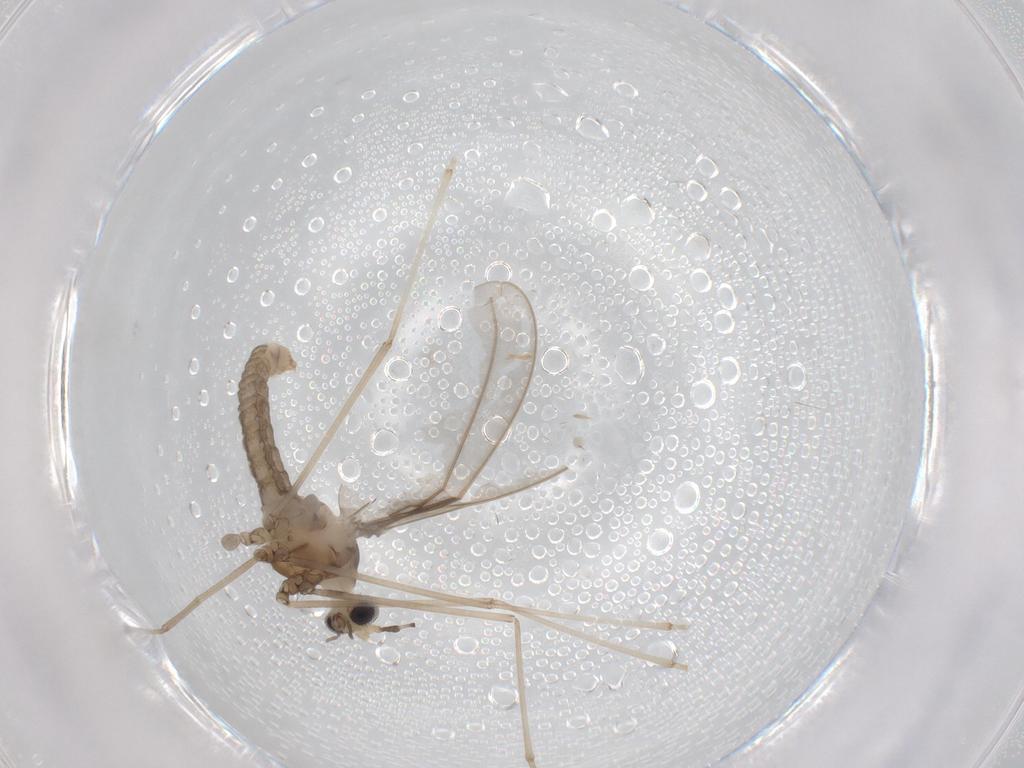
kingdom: Animalia
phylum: Arthropoda
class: Insecta
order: Diptera
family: Cecidomyiidae
